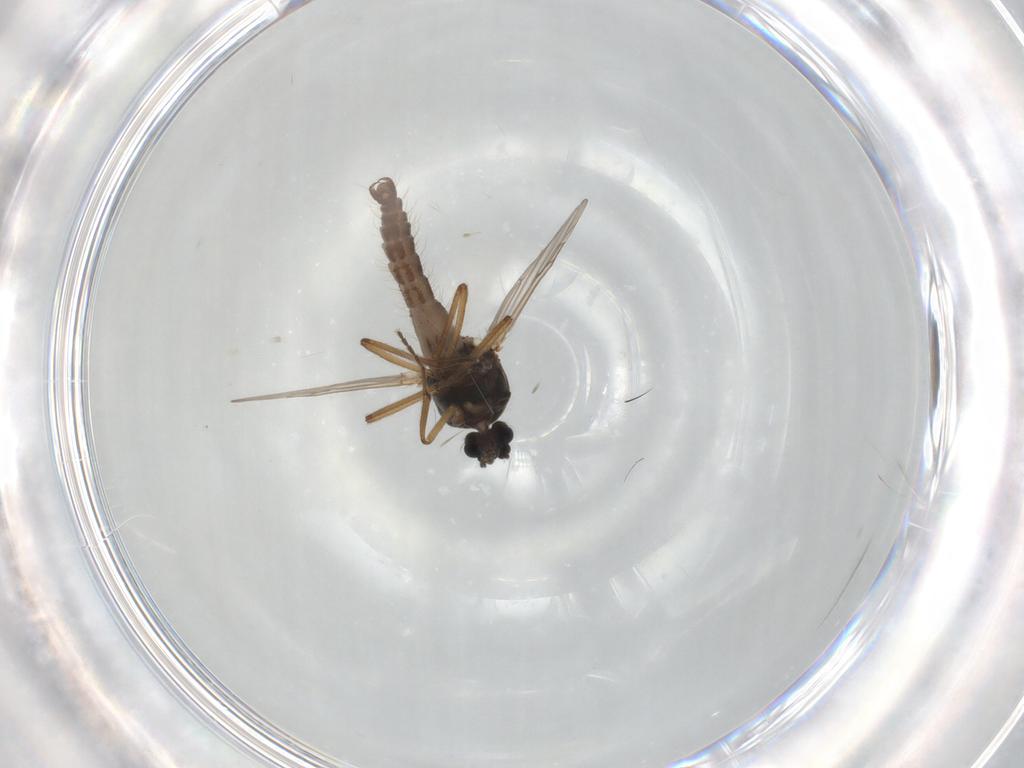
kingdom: Animalia
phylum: Arthropoda
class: Insecta
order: Diptera
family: Ceratopogonidae
